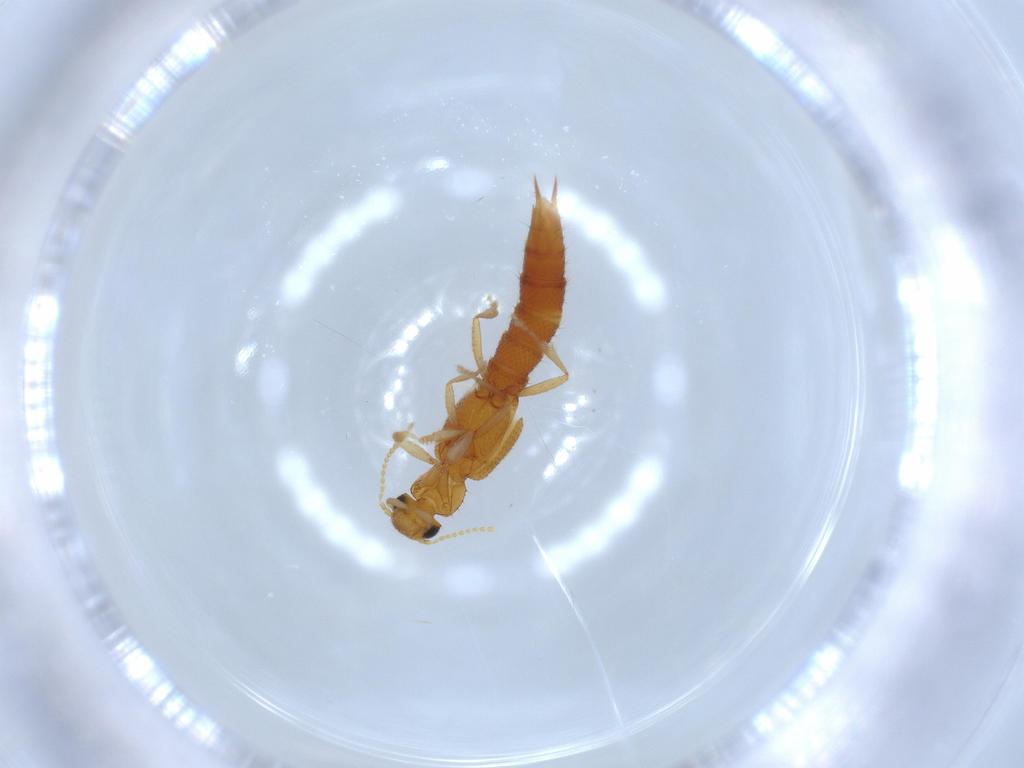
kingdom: Animalia
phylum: Arthropoda
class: Insecta
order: Coleoptera
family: Staphylinidae
